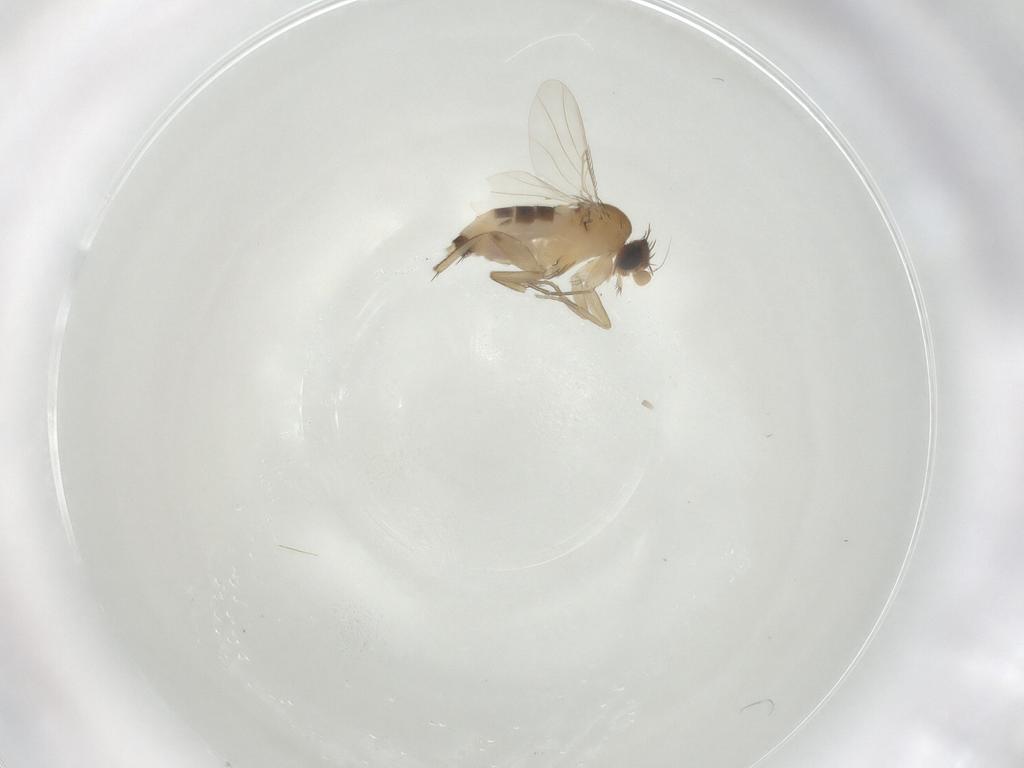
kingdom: Animalia
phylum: Arthropoda
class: Insecta
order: Diptera
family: Phoridae
